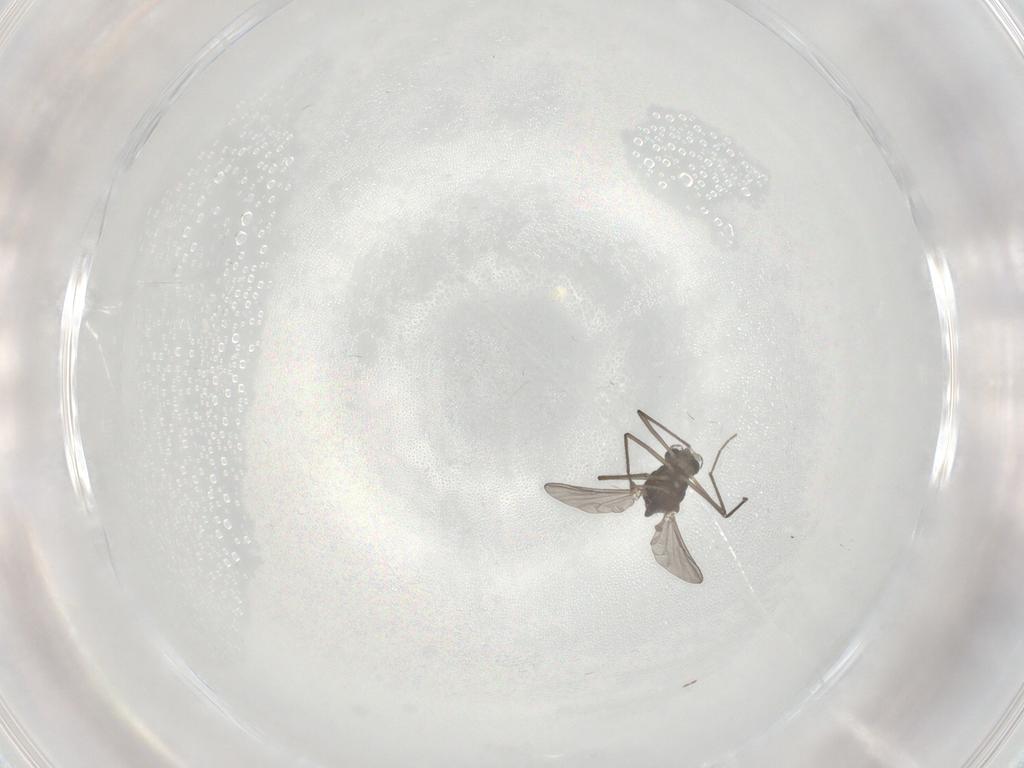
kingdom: Animalia
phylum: Arthropoda
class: Insecta
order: Diptera
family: Chironomidae
